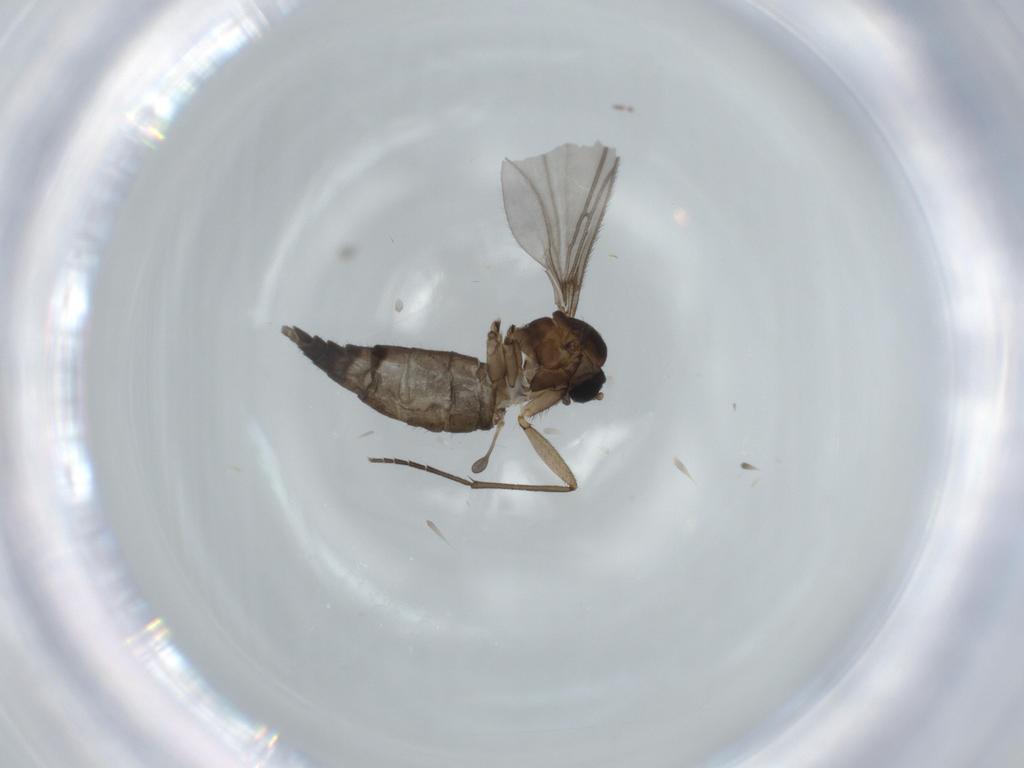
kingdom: Animalia
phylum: Arthropoda
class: Insecta
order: Diptera
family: Sciaridae
